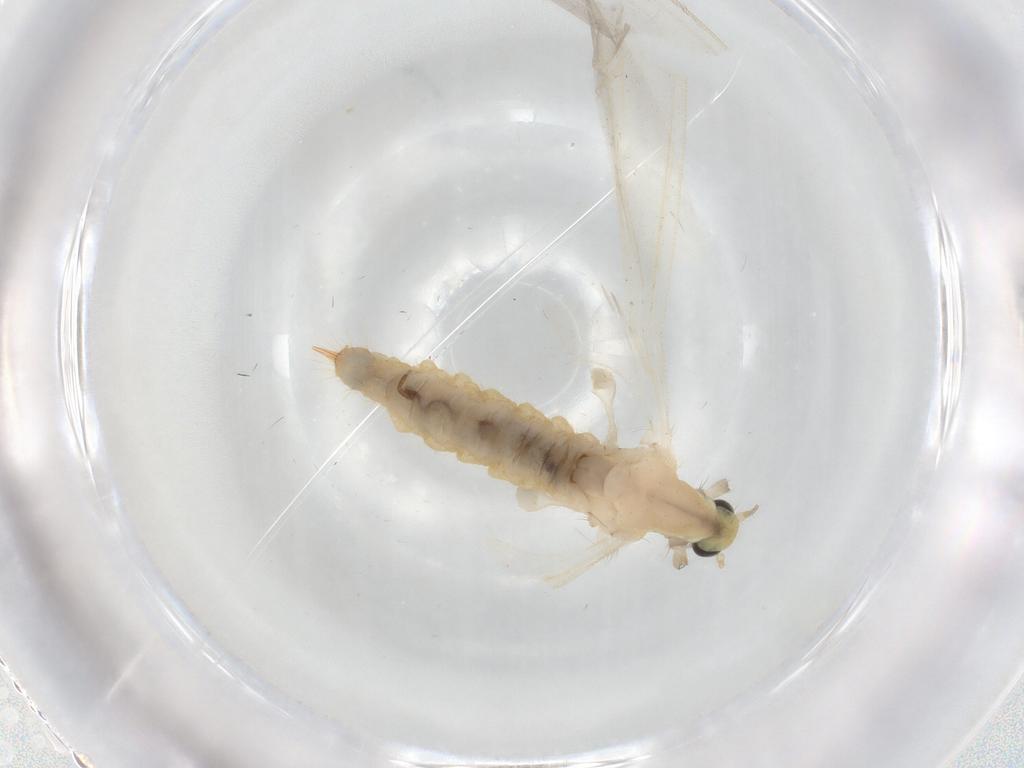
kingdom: Animalia
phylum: Arthropoda
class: Insecta
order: Diptera
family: Limoniidae
